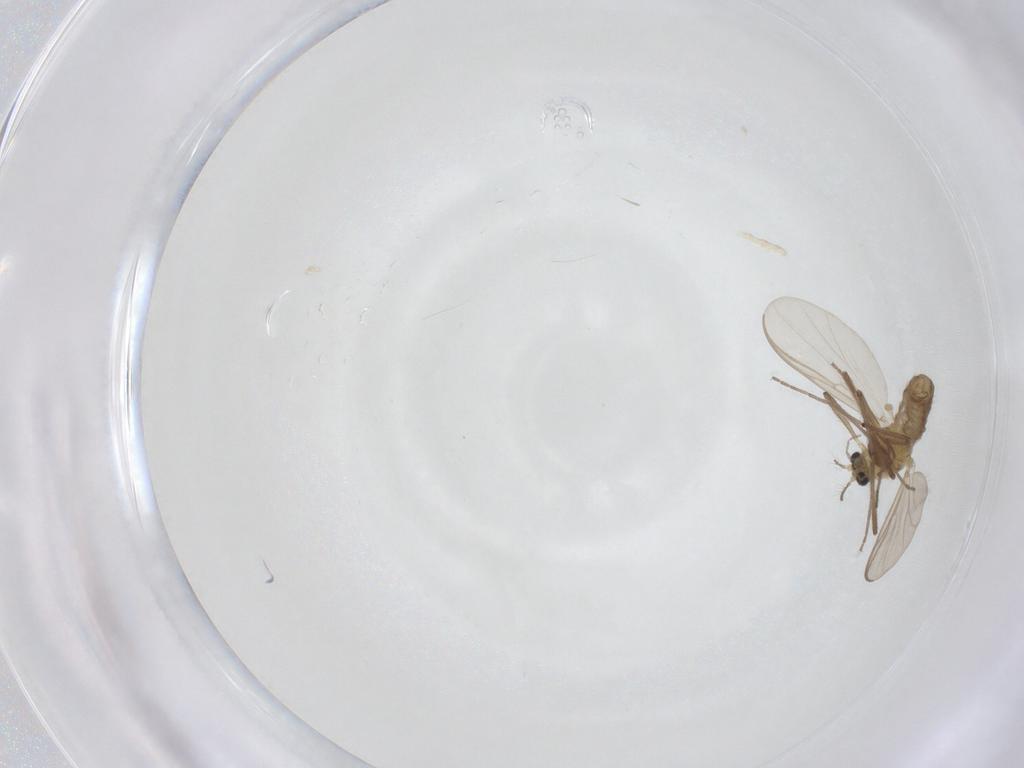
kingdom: Animalia
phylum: Arthropoda
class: Insecta
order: Diptera
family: Chironomidae
